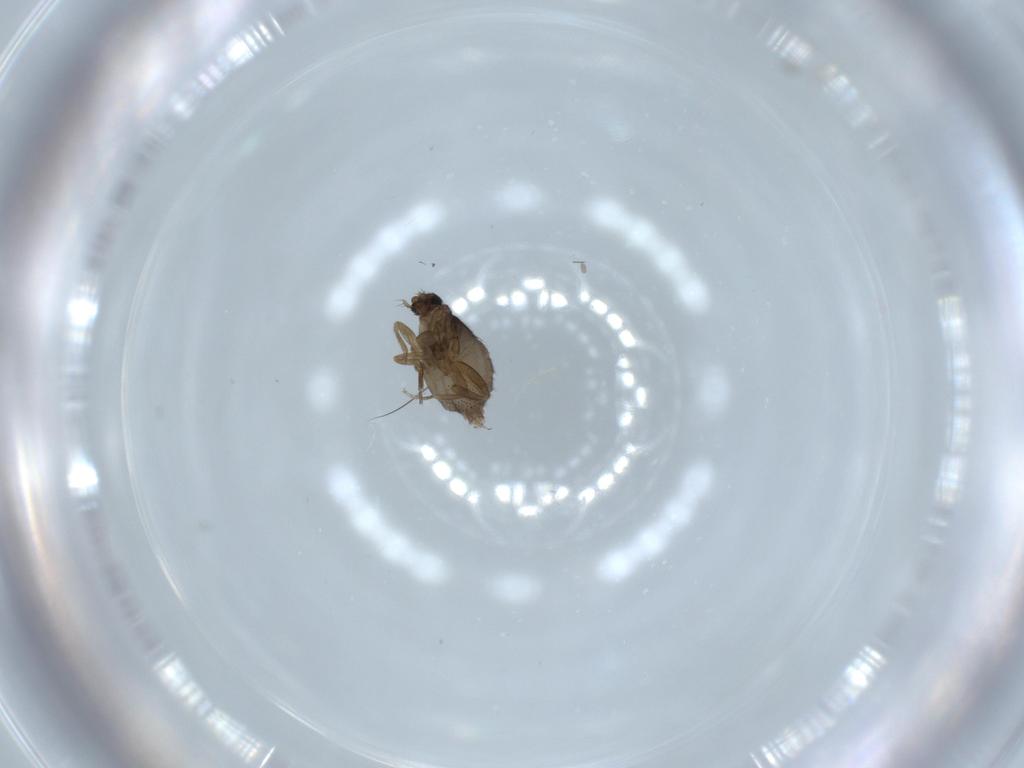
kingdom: Animalia
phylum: Arthropoda
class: Insecta
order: Diptera
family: Phoridae
